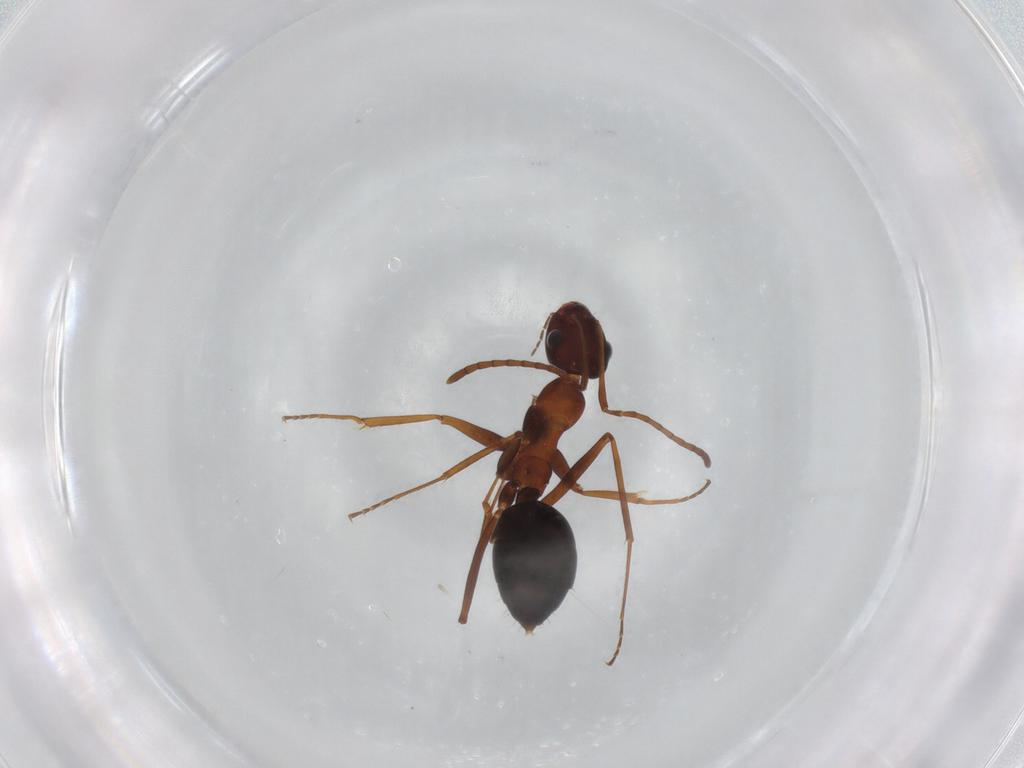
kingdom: Animalia
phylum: Arthropoda
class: Insecta
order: Hymenoptera
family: Formicidae
